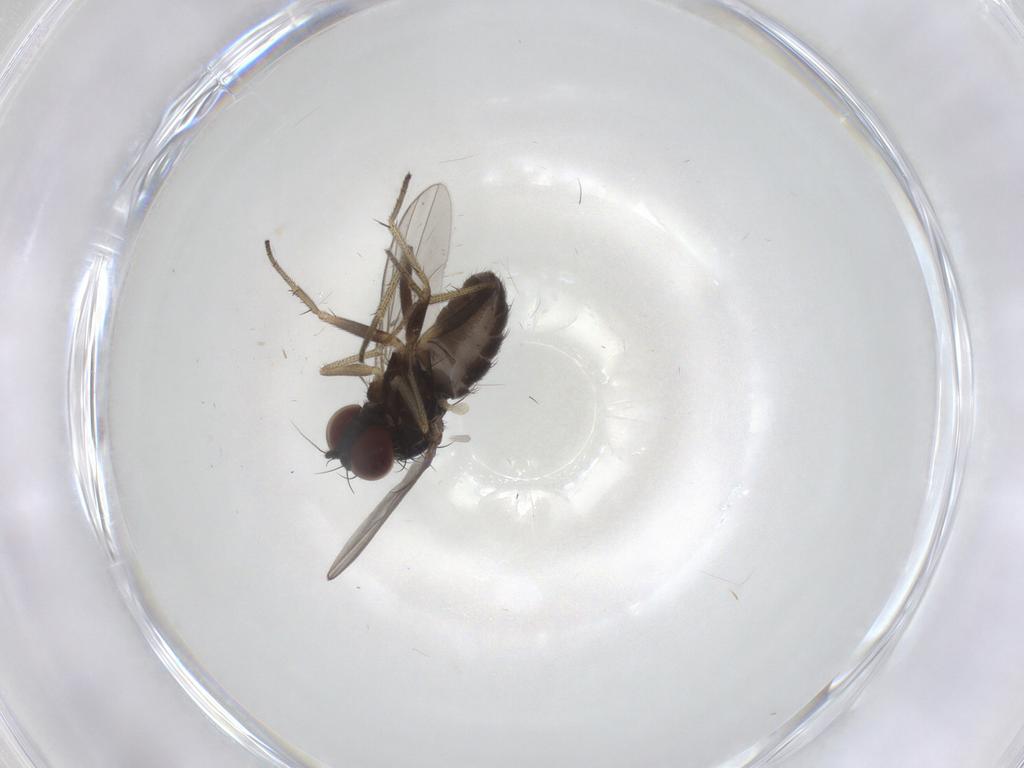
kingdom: Animalia
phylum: Arthropoda
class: Insecta
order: Diptera
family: Dolichopodidae
